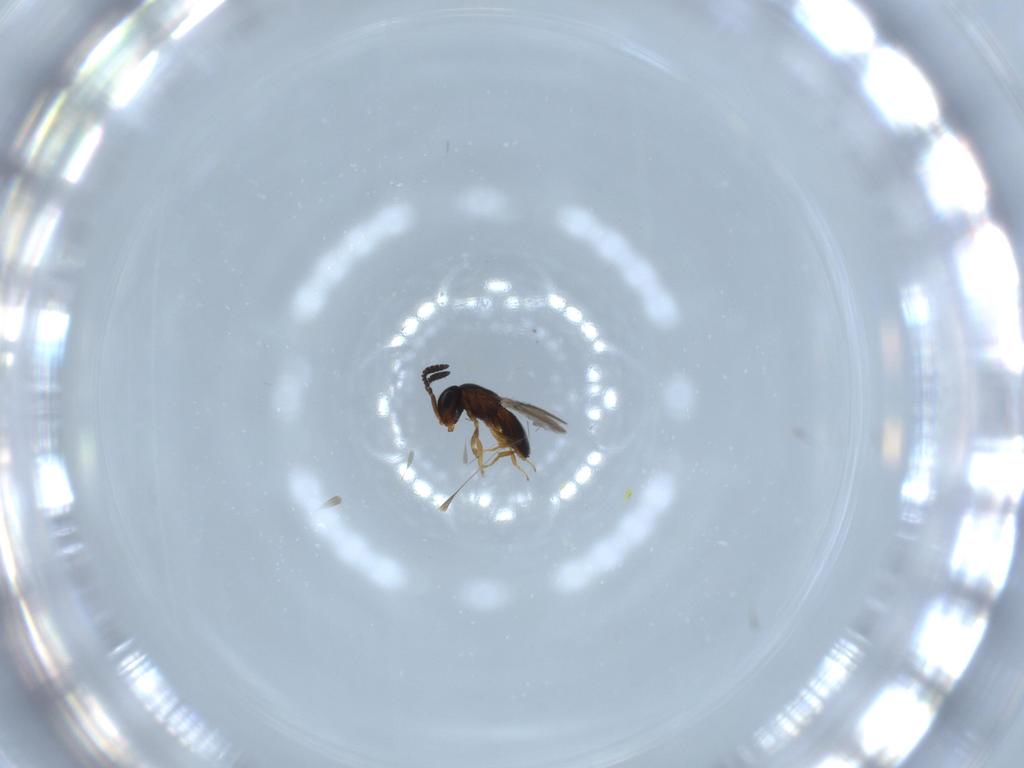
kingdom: Animalia
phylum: Arthropoda
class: Insecta
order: Hymenoptera
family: Scelionidae
